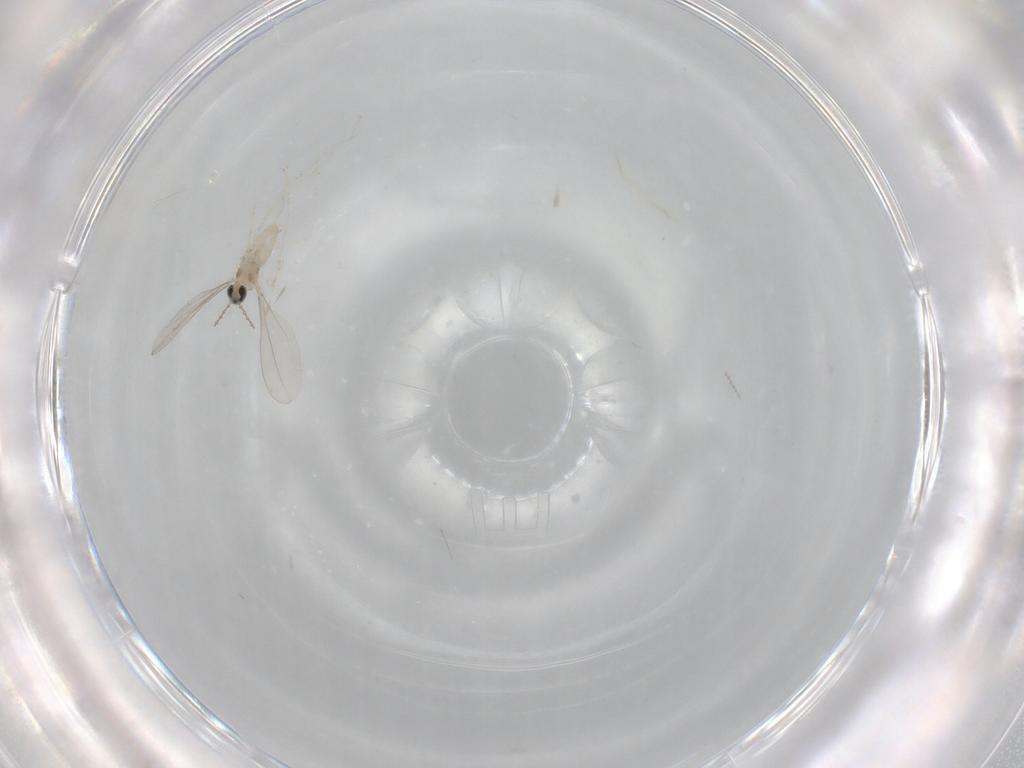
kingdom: Animalia
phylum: Arthropoda
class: Insecta
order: Diptera
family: Cecidomyiidae
